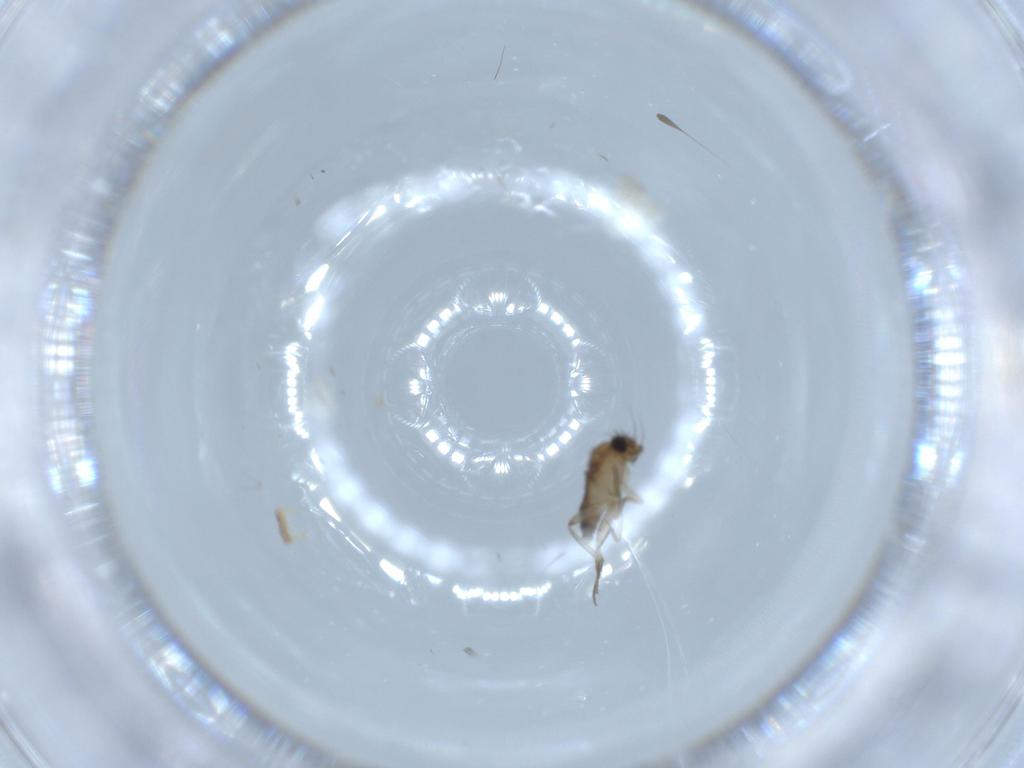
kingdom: Animalia
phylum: Arthropoda
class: Insecta
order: Diptera
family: Phoridae
